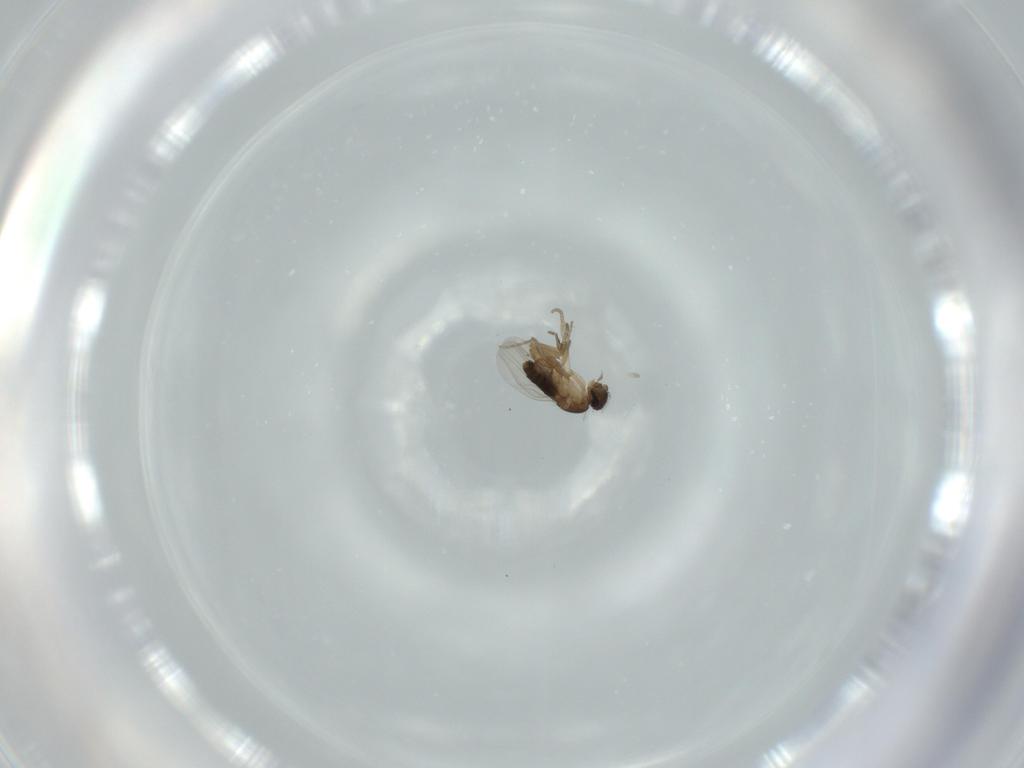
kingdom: Animalia
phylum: Arthropoda
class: Insecta
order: Diptera
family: Phoridae
